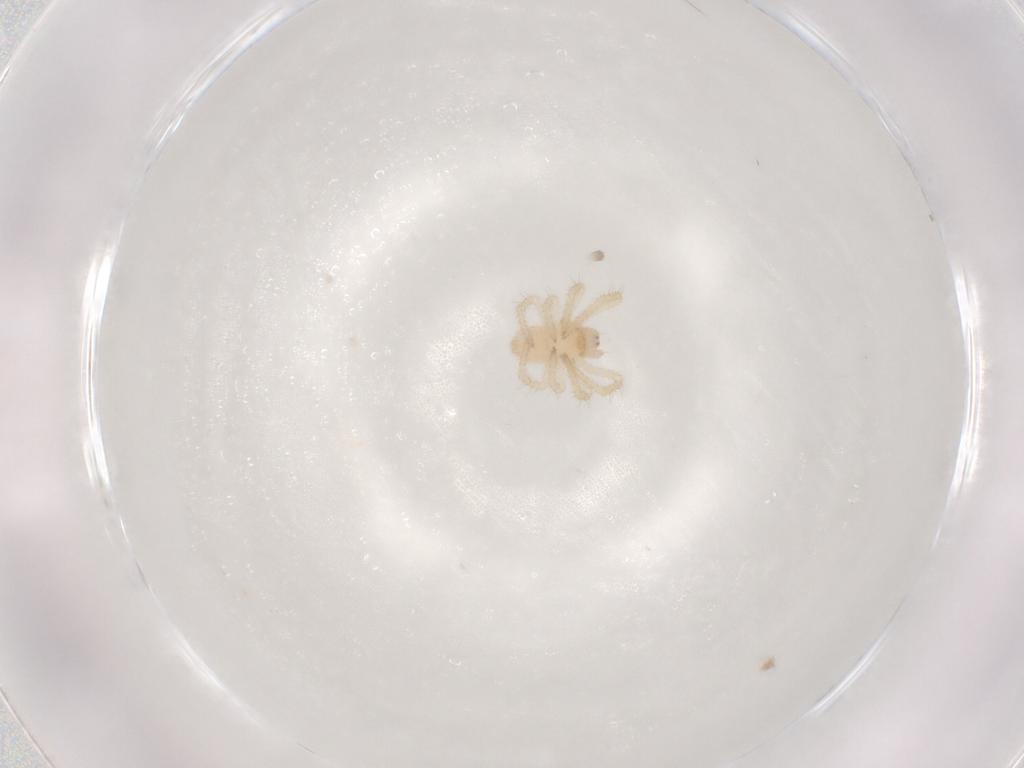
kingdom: Animalia
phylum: Arthropoda
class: Arachnida
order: Araneae
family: Theridiidae
